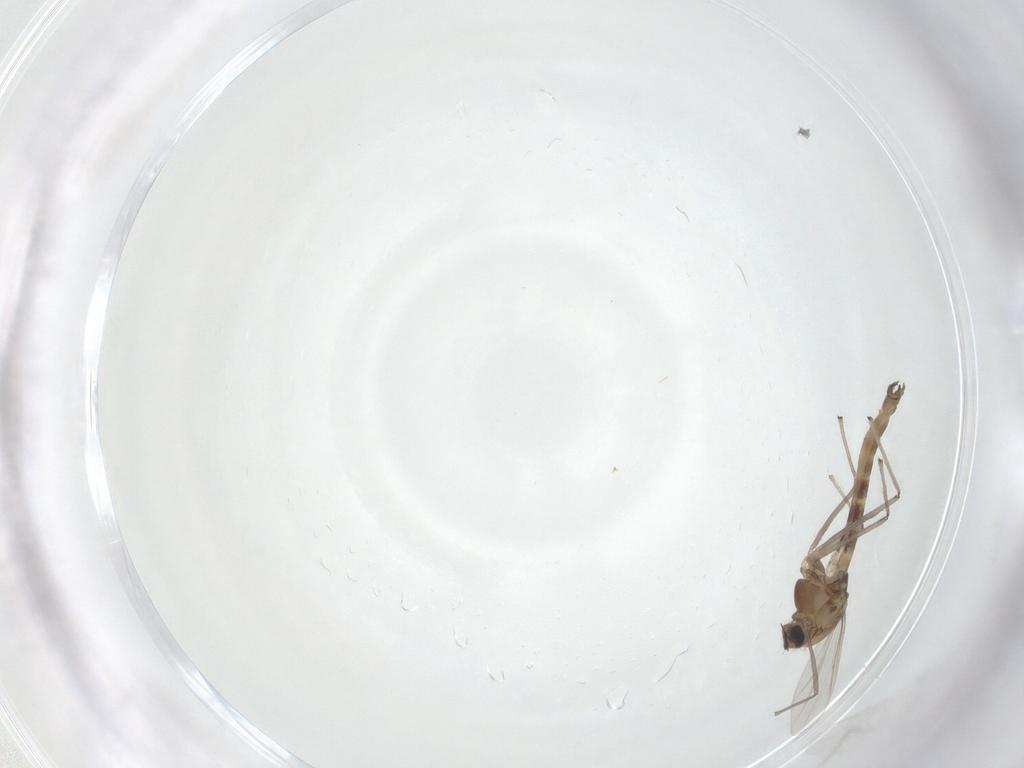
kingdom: Animalia
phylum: Arthropoda
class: Insecta
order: Diptera
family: Chironomidae
